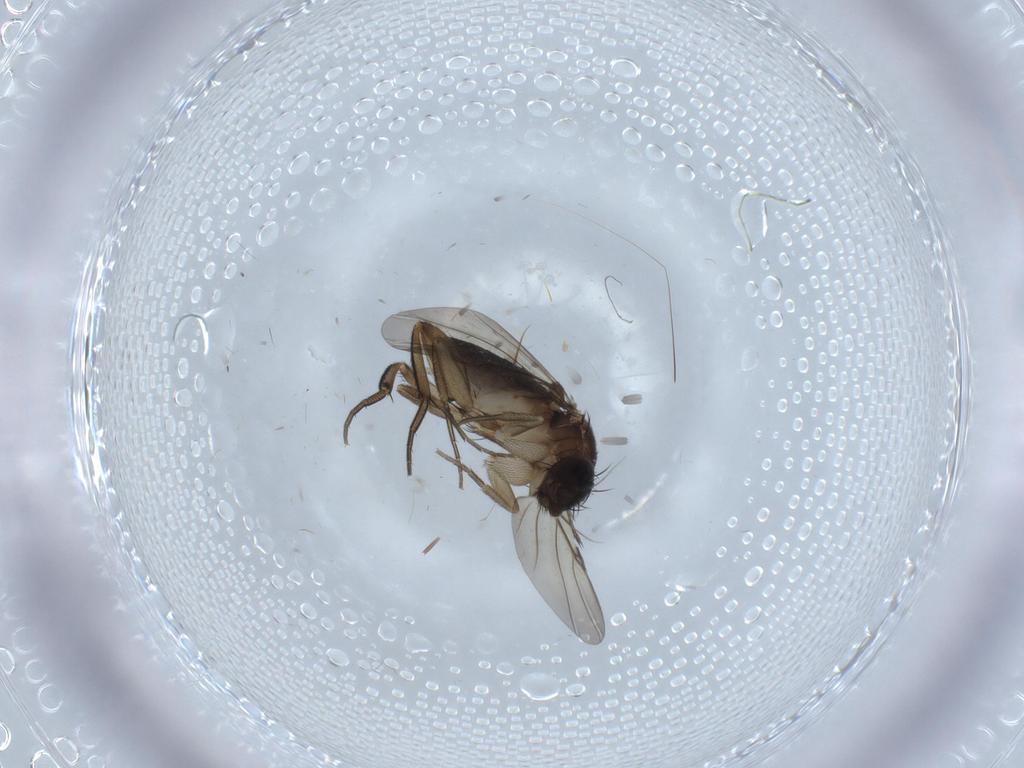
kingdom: Animalia
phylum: Arthropoda
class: Insecta
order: Diptera
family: Phoridae
